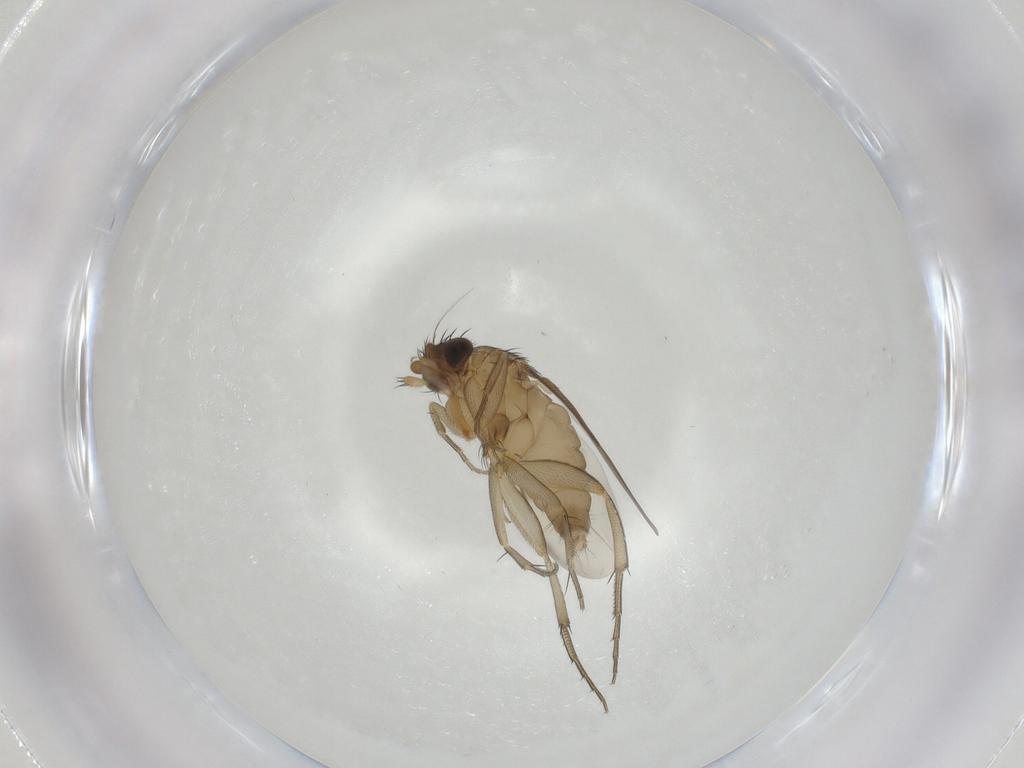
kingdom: Animalia
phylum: Arthropoda
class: Insecta
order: Diptera
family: Phoridae
